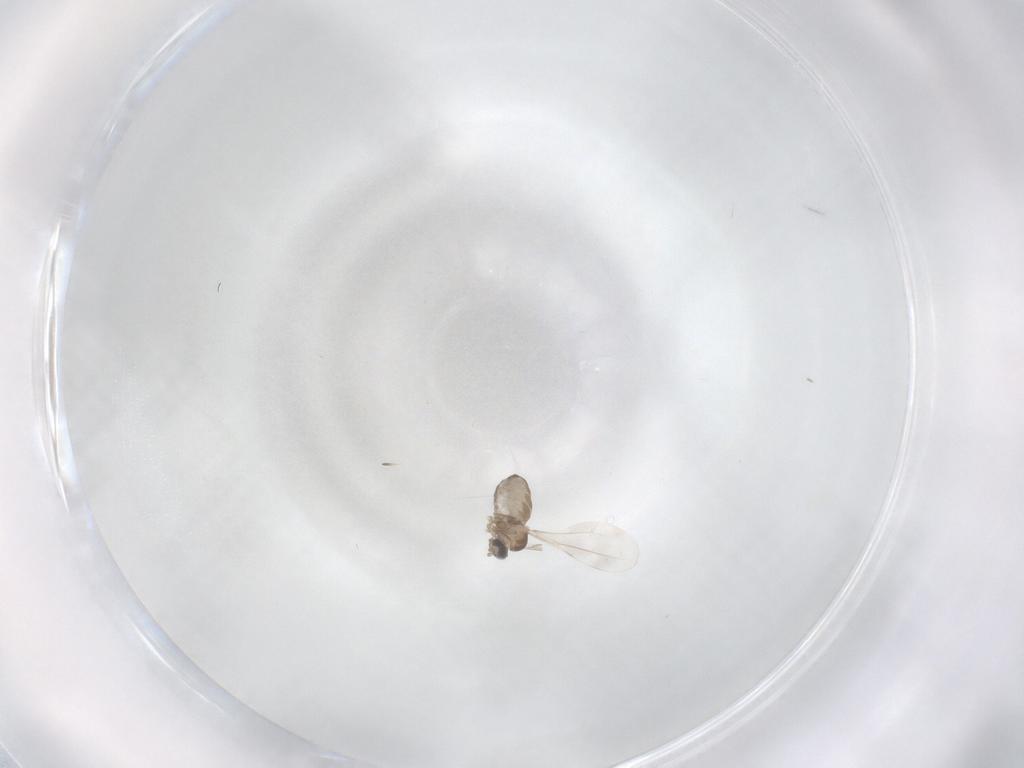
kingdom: Animalia
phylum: Arthropoda
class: Insecta
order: Diptera
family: Cecidomyiidae
